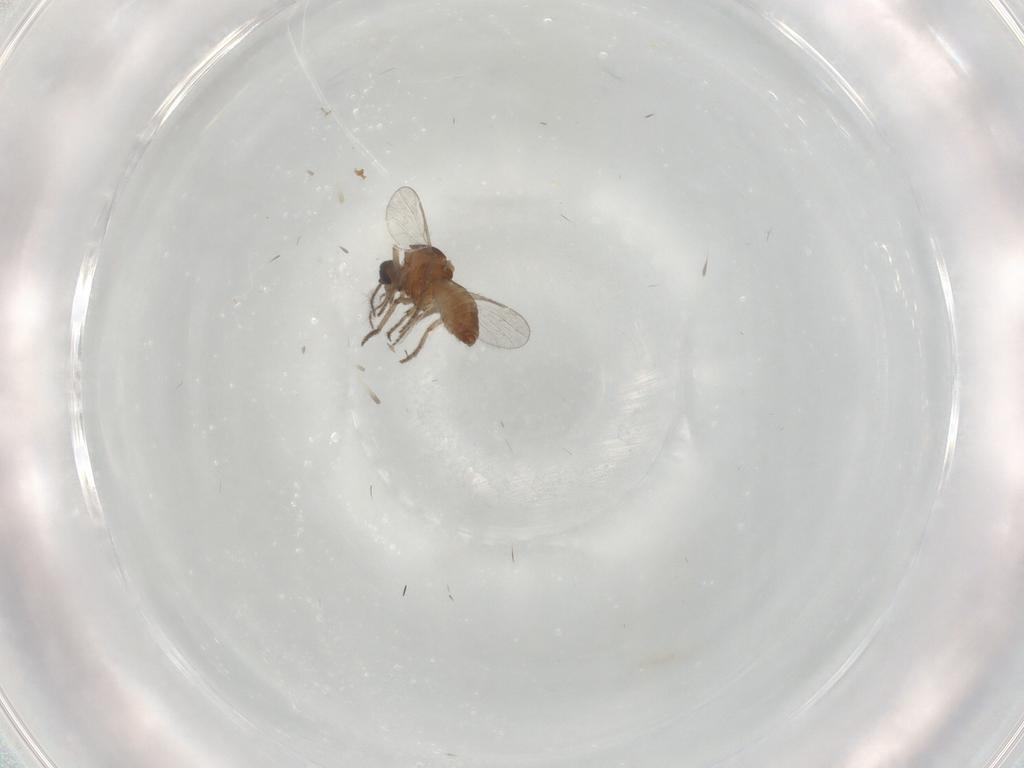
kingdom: Animalia
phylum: Arthropoda
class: Insecta
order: Diptera
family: Ceratopogonidae
